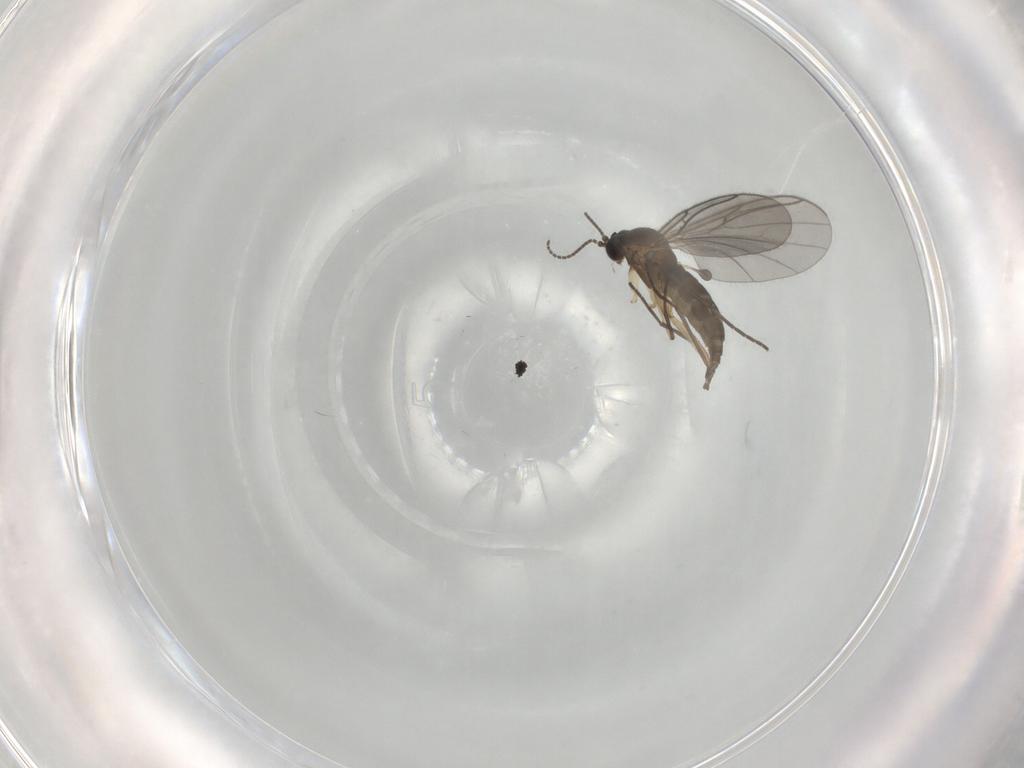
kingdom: Animalia
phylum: Arthropoda
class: Insecta
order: Diptera
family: Sciaridae
